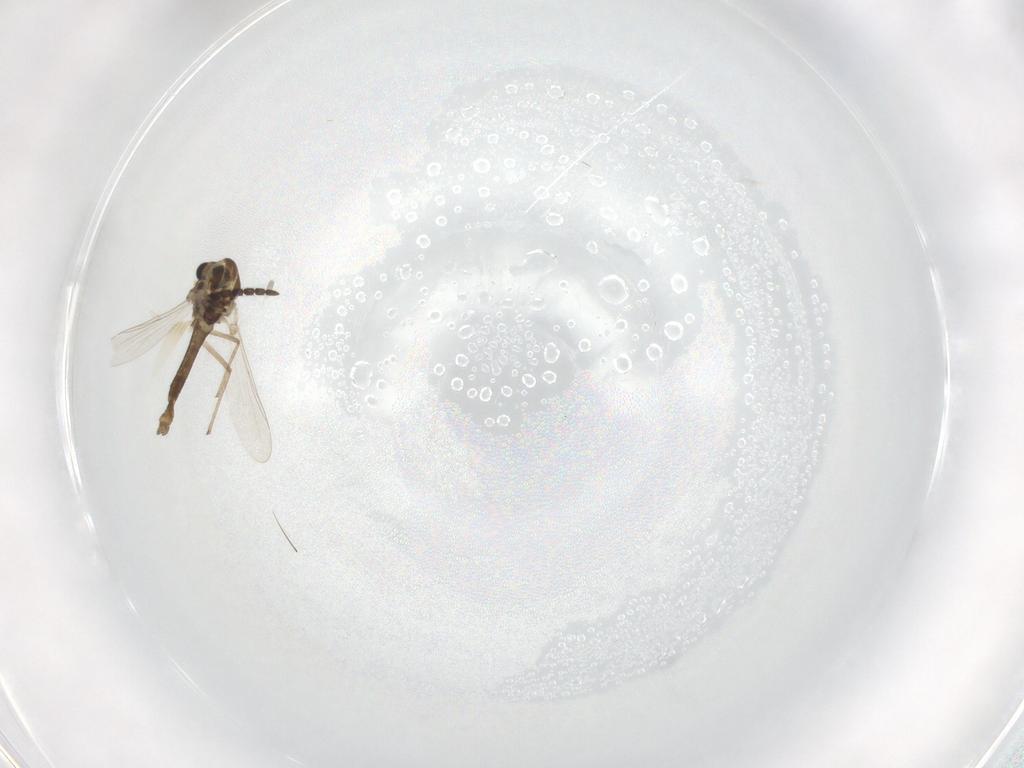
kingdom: Animalia
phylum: Arthropoda
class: Insecta
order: Diptera
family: Chironomidae
